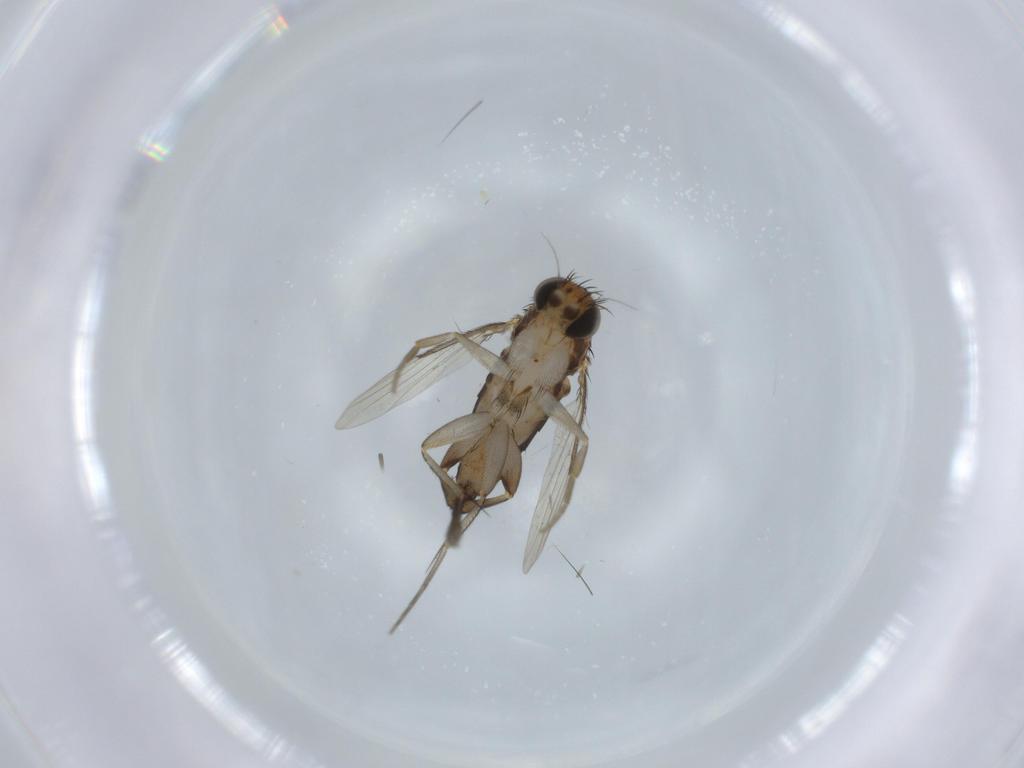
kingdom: Animalia
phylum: Arthropoda
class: Insecta
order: Diptera
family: Phoridae
